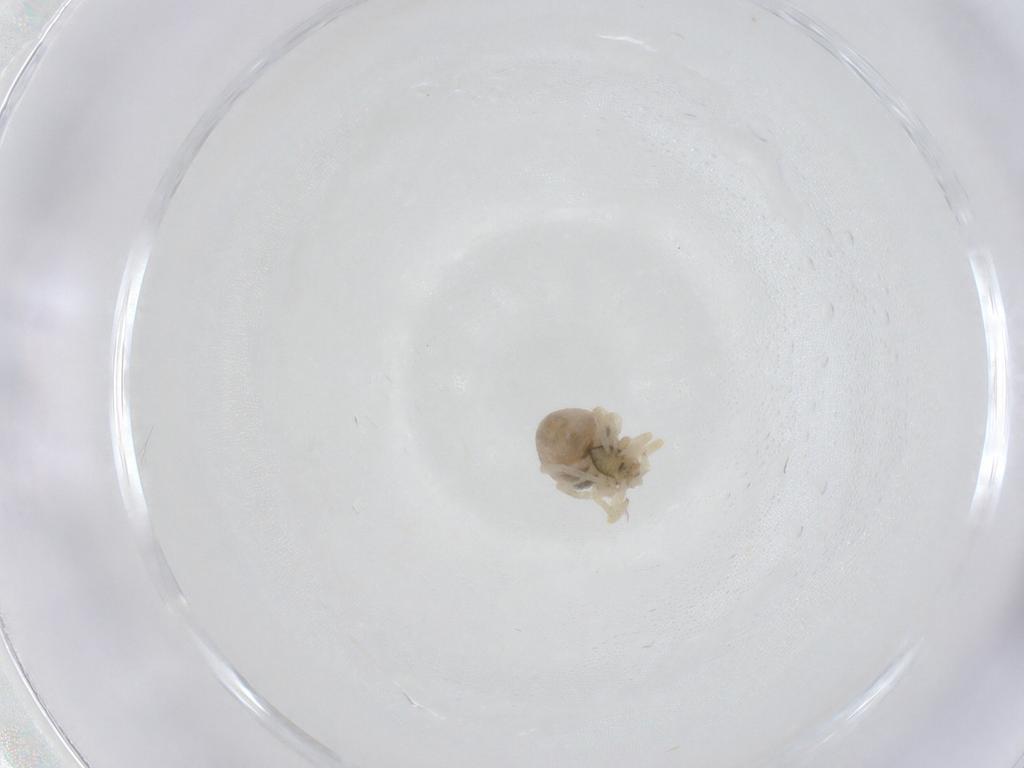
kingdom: Animalia
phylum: Arthropoda
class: Arachnida
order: Araneae
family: Theridiidae
